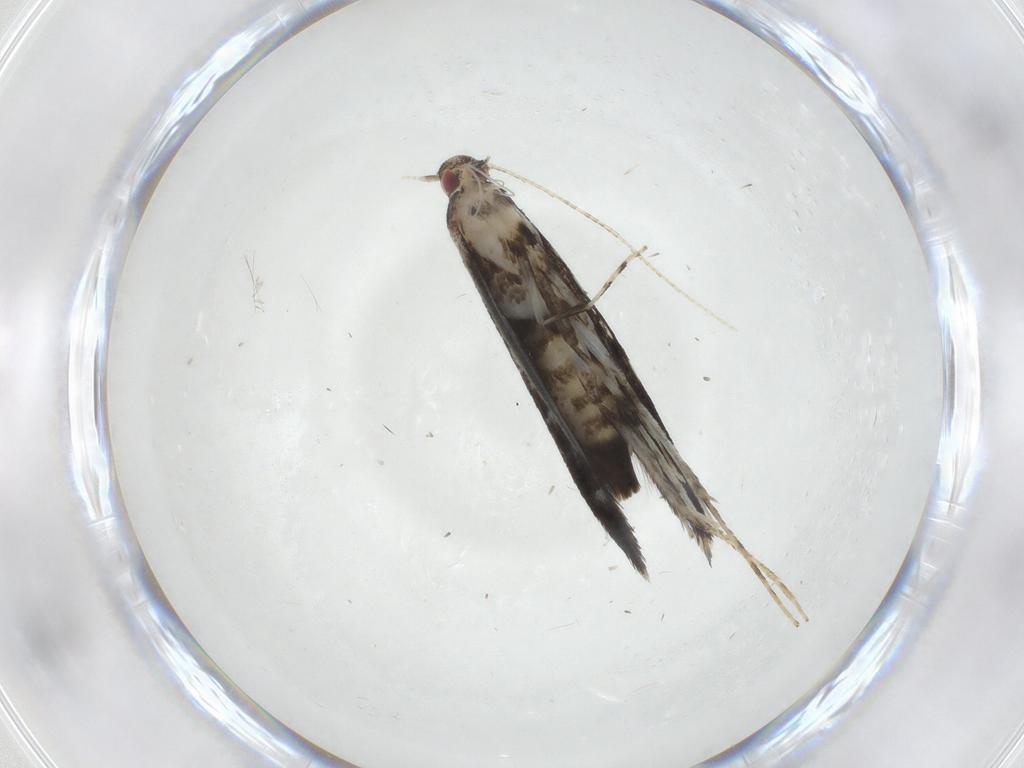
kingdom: Animalia
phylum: Arthropoda
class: Insecta
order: Lepidoptera
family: Gracillariidae
